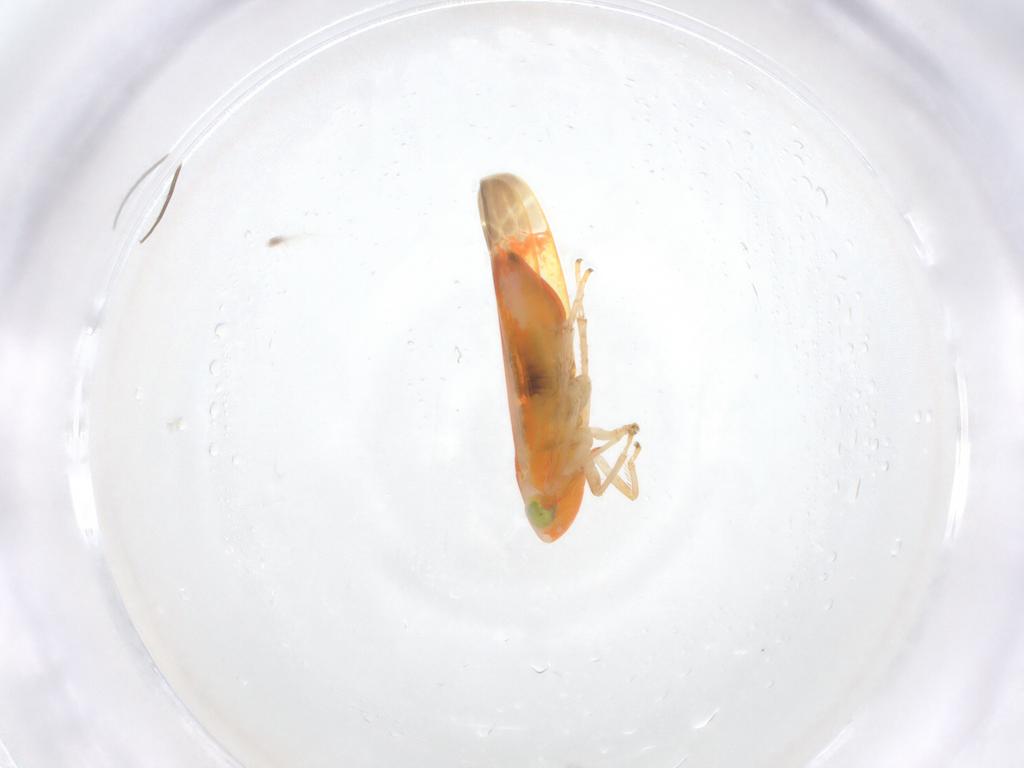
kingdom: Animalia
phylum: Arthropoda
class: Insecta
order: Hemiptera
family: Cicadellidae
